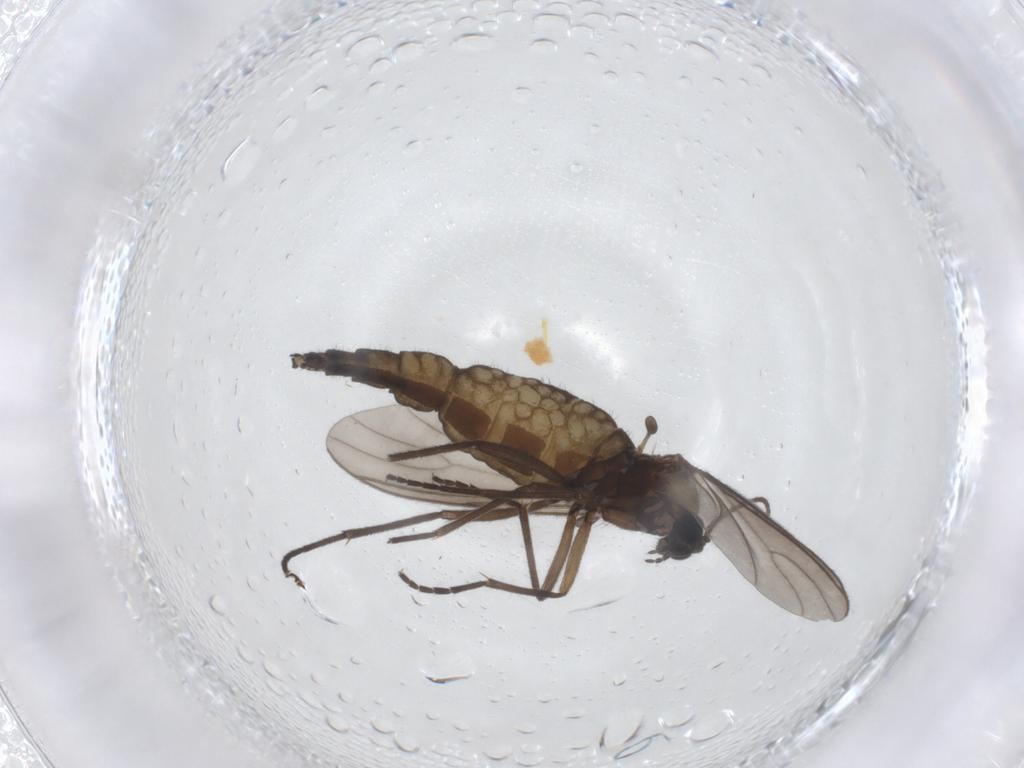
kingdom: Animalia
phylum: Arthropoda
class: Insecta
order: Diptera
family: Sciaridae
